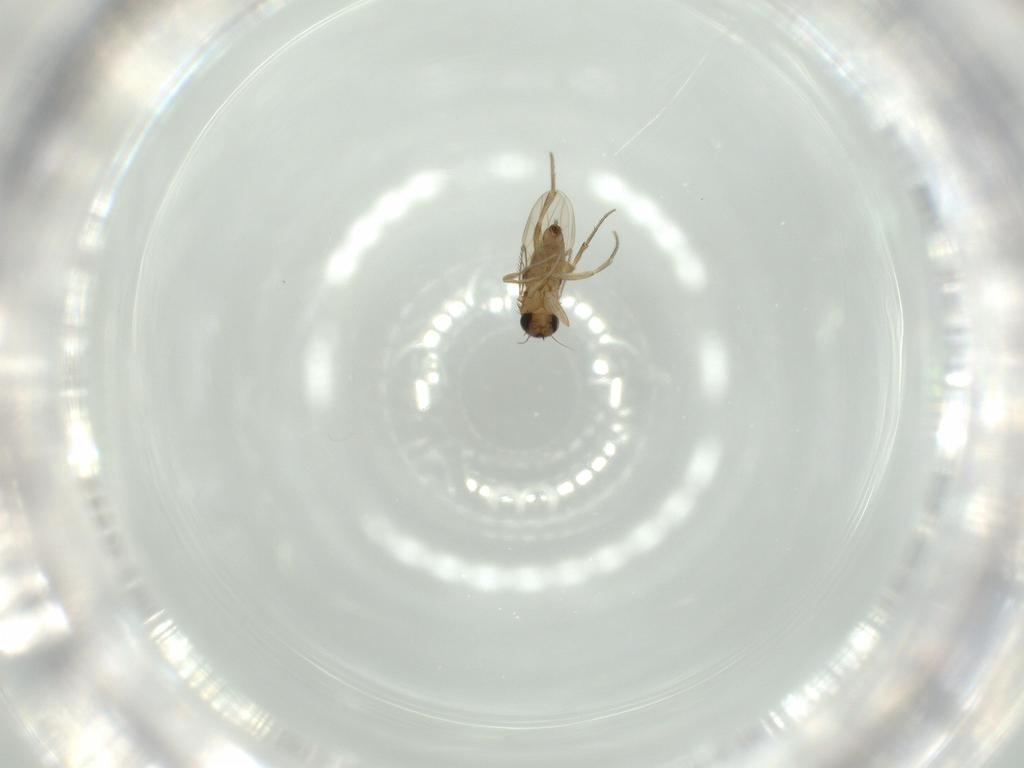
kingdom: Animalia
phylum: Arthropoda
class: Insecta
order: Diptera
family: Phoridae
